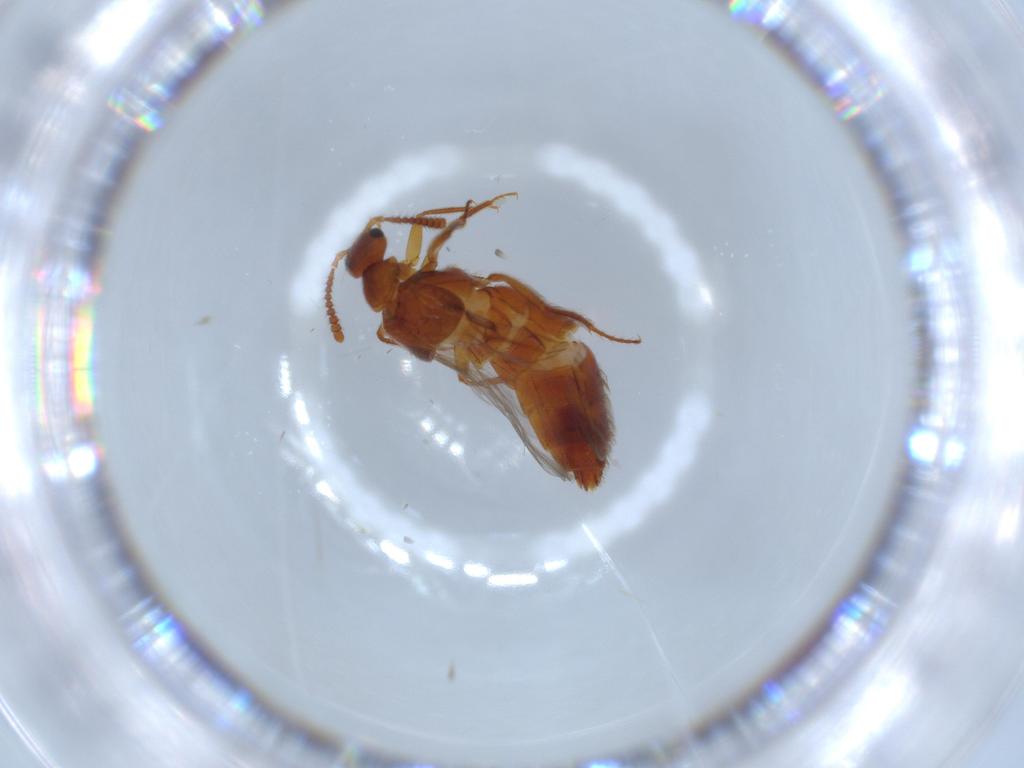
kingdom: Animalia
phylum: Arthropoda
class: Insecta
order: Coleoptera
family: Staphylinidae
